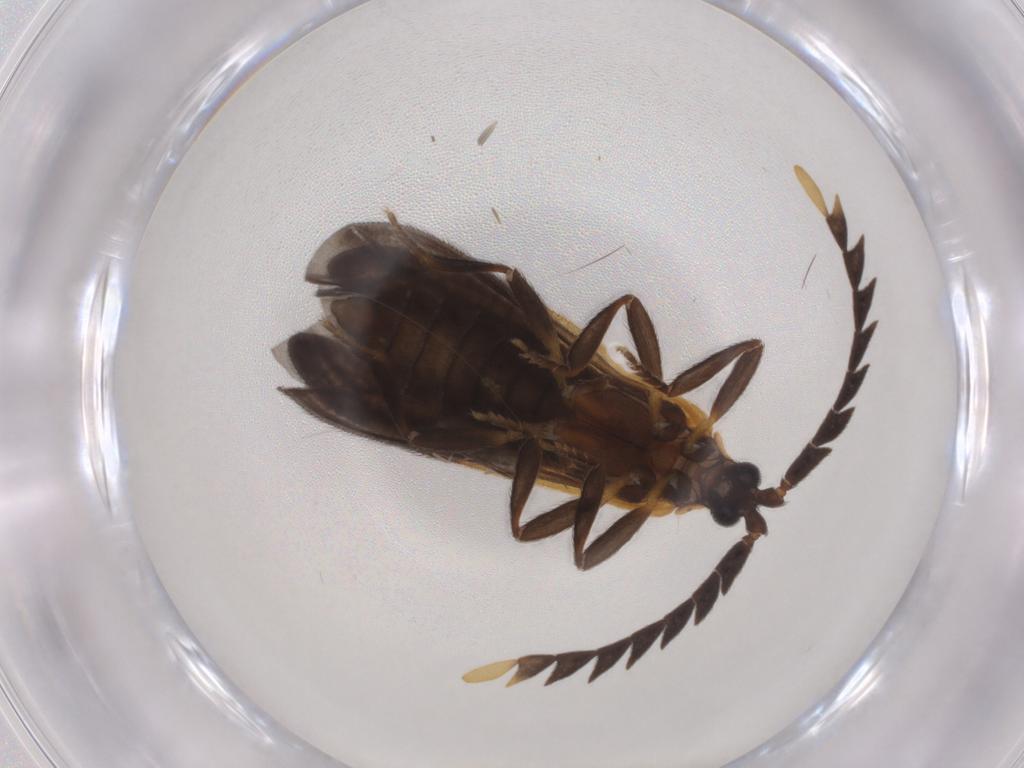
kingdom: Animalia
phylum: Arthropoda
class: Insecta
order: Coleoptera
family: Lycidae
